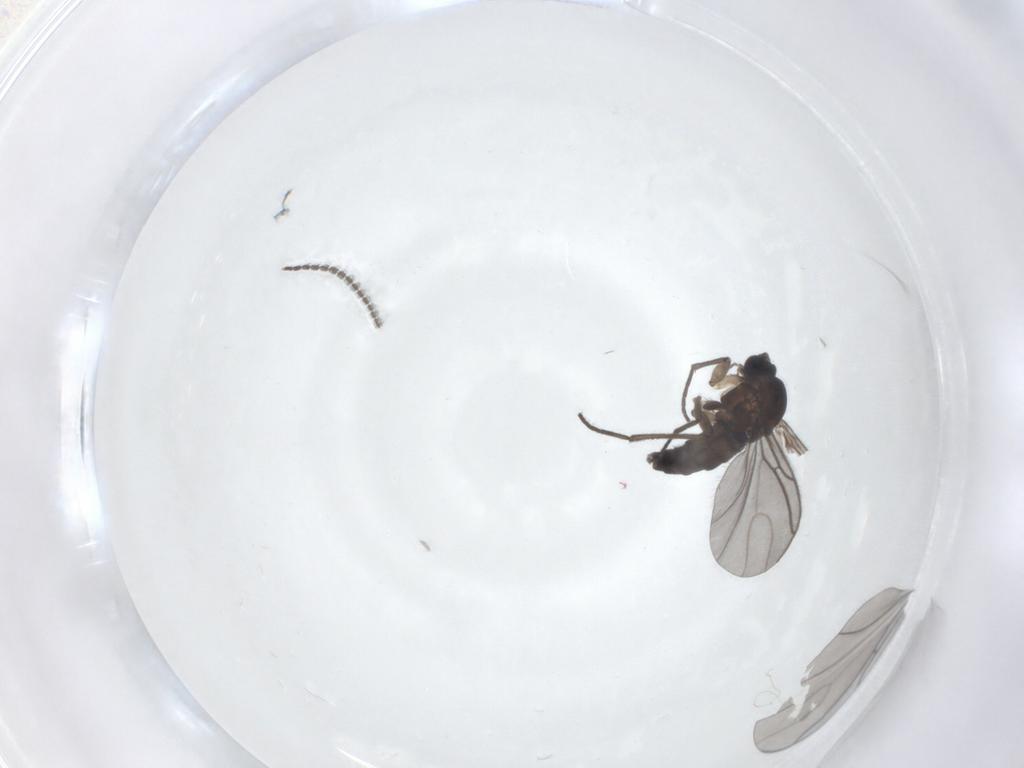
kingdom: Animalia
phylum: Arthropoda
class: Insecta
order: Diptera
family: Sciaridae
